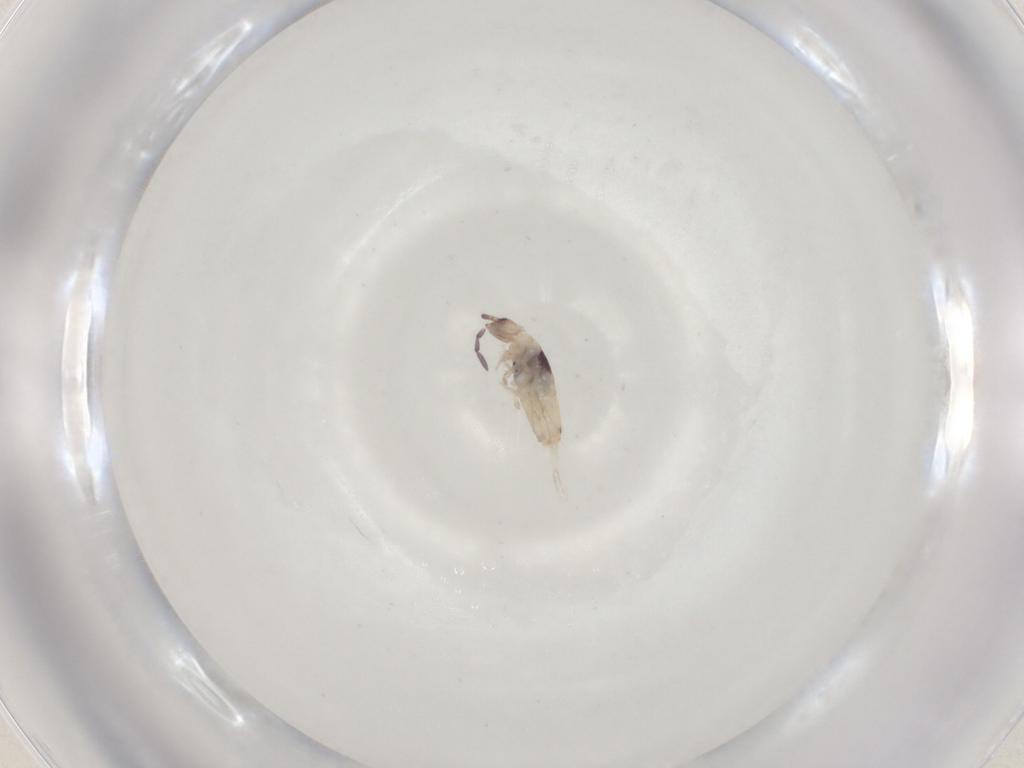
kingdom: Animalia
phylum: Arthropoda
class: Collembola
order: Entomobryomorpha
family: Entomobryidae
